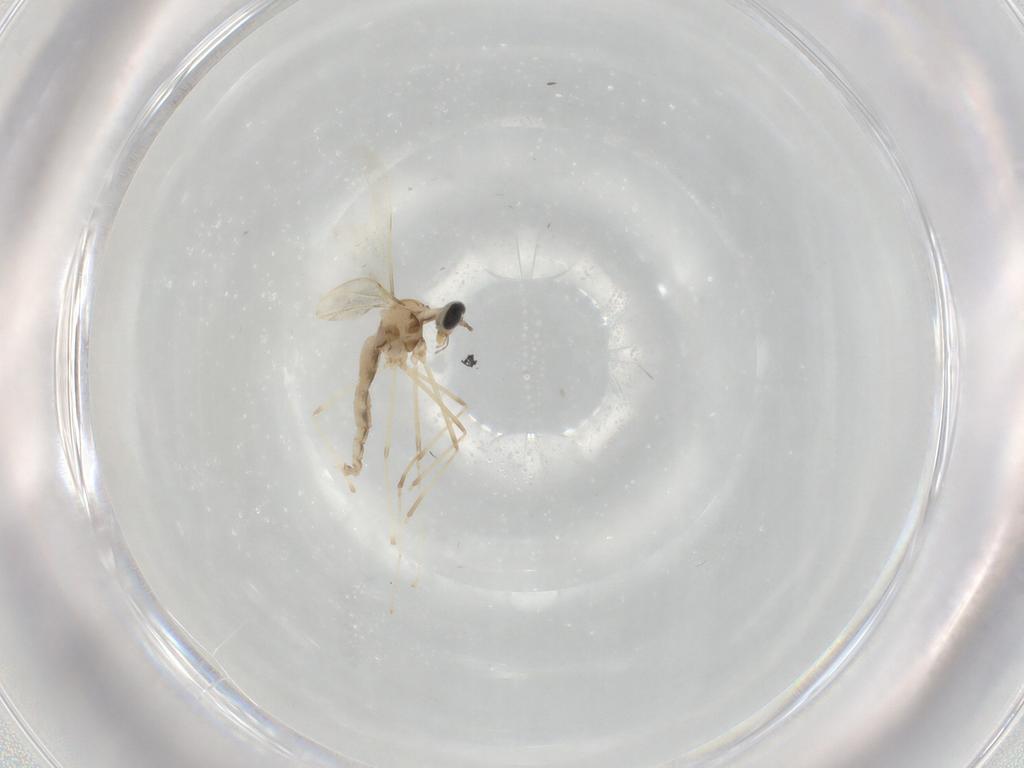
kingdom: Animalia
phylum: Arthropoda
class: Insecta
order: Diptera
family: Cecidomyiidae
